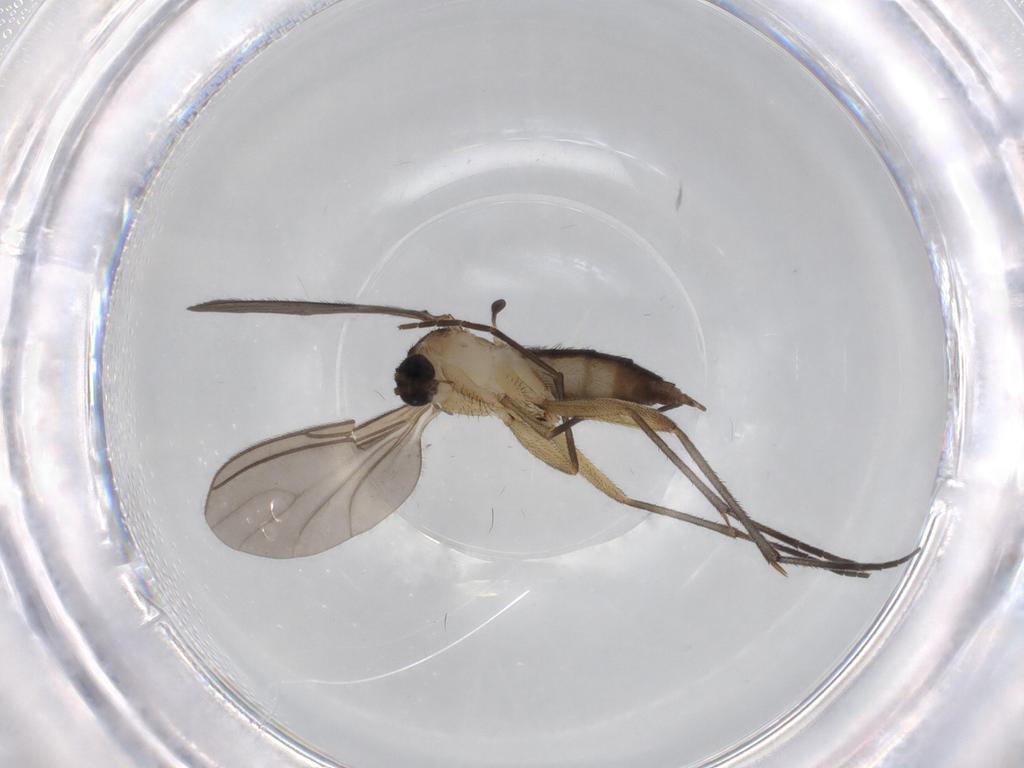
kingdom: Animalia
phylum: Arthropoda
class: Insecta
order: Diptera
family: Sciaridae
